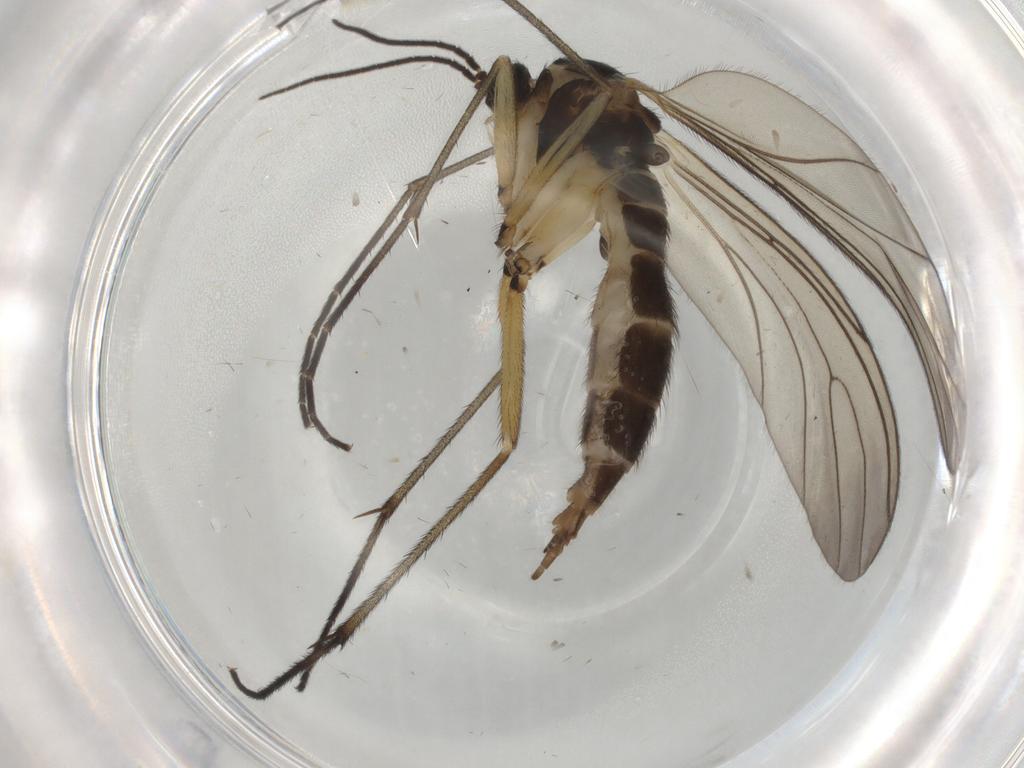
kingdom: Animalia
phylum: Arthropoda
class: Insecta
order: Diptera
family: Sciaridae
